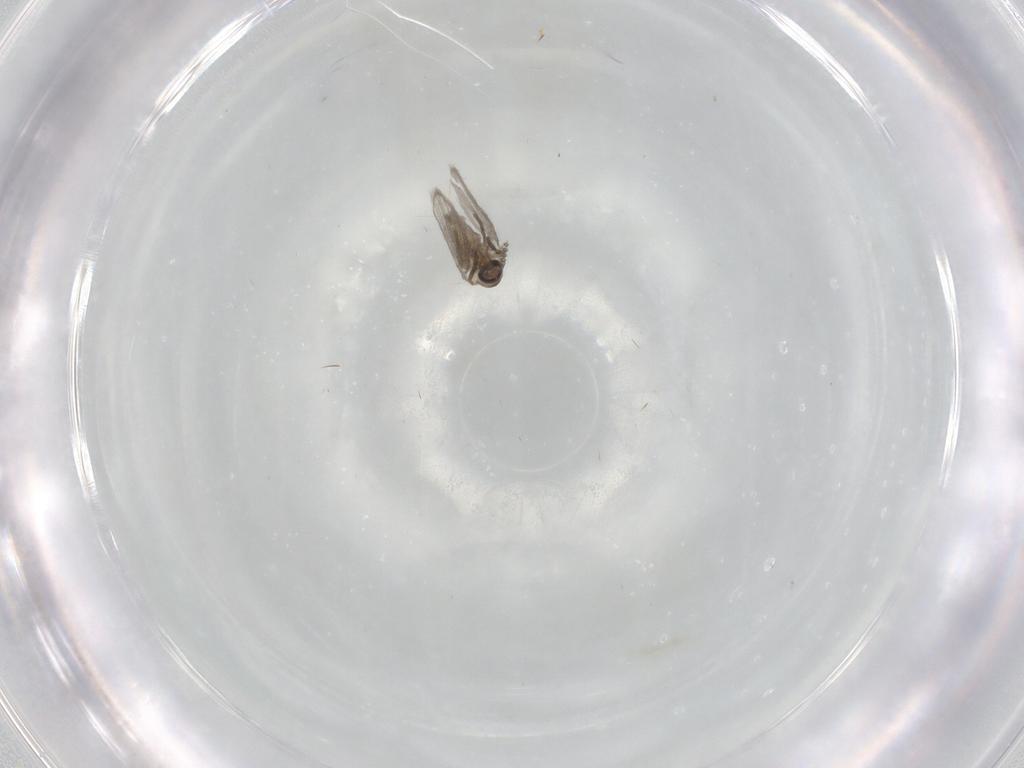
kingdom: Animalia
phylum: Arthropoda
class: Insecta
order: Diptera
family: Psychodidae
